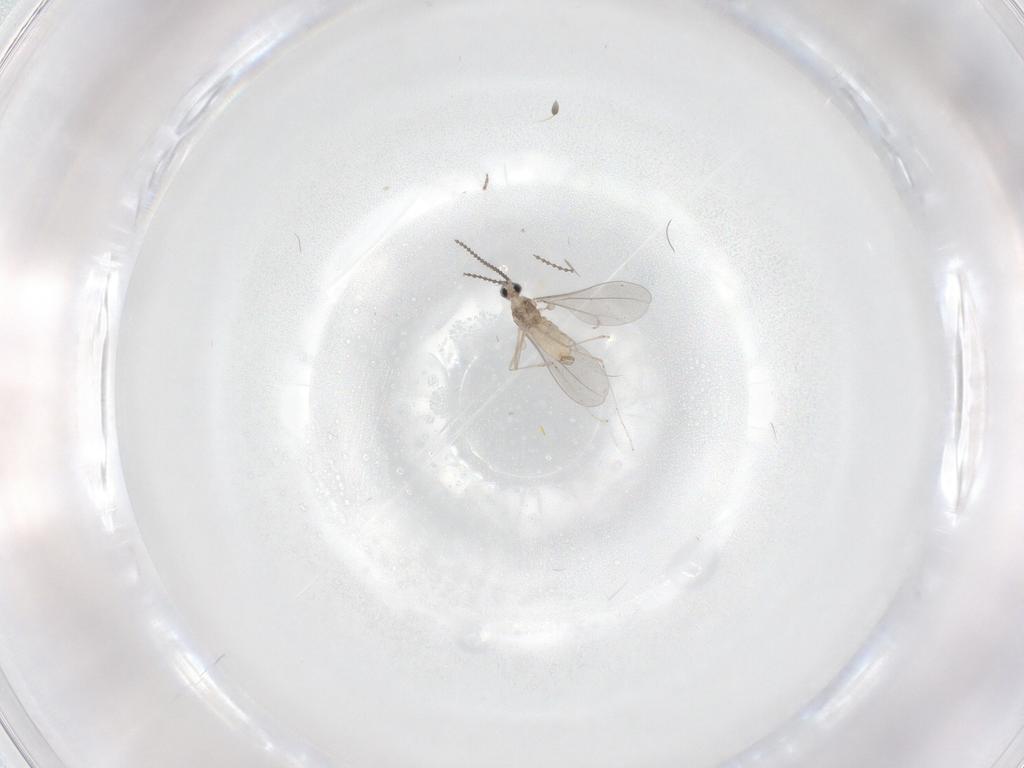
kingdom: Animalia
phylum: Arthropoda
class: Insecta
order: Diptera
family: Cecidomyiidae
